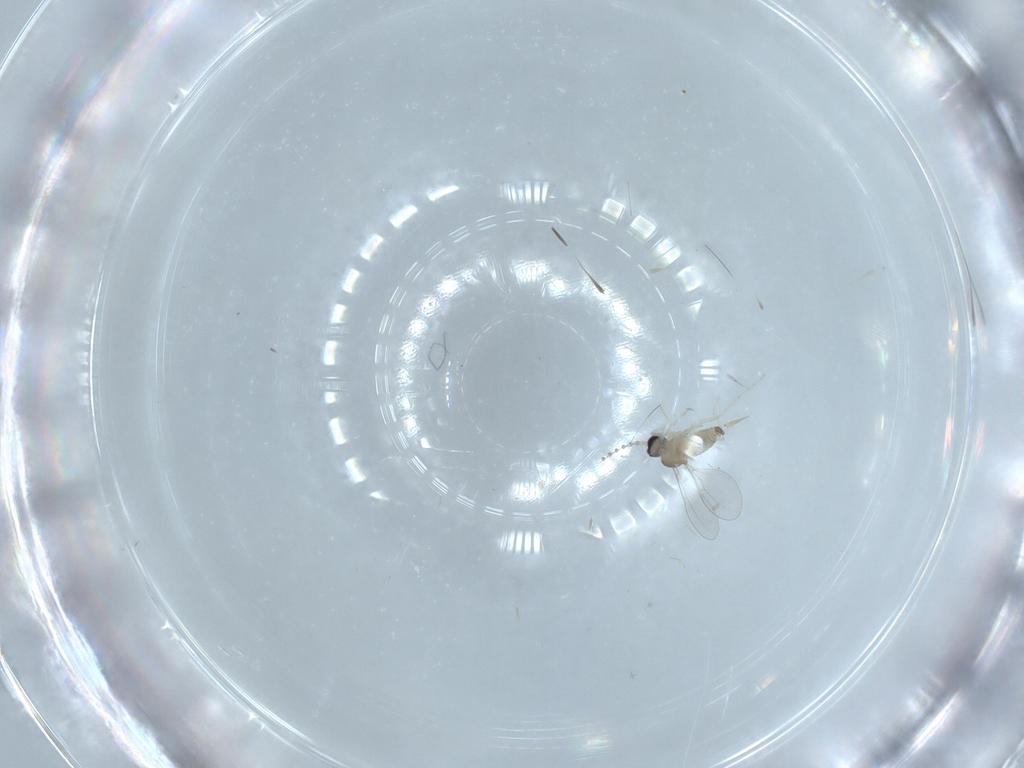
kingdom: Animalia
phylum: Arthropoda
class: Insecta
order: Diptera
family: Cecidomyiidae
